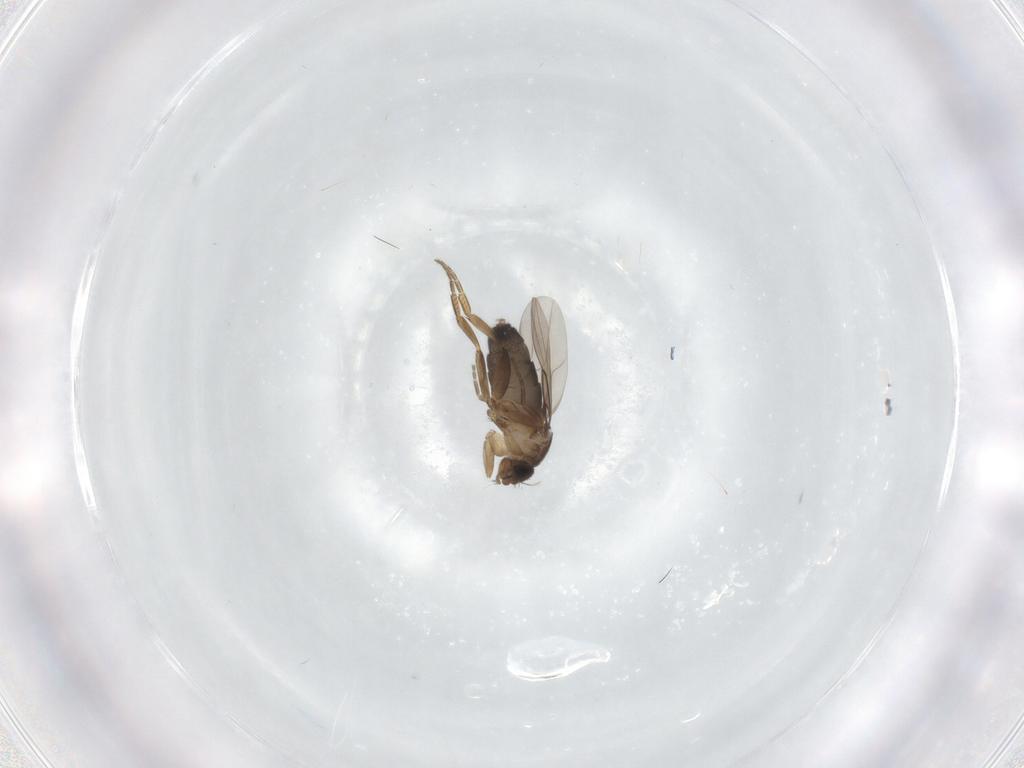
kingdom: Animalia
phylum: Arthropoda
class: Insecta
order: Diptera
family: Phoridae
